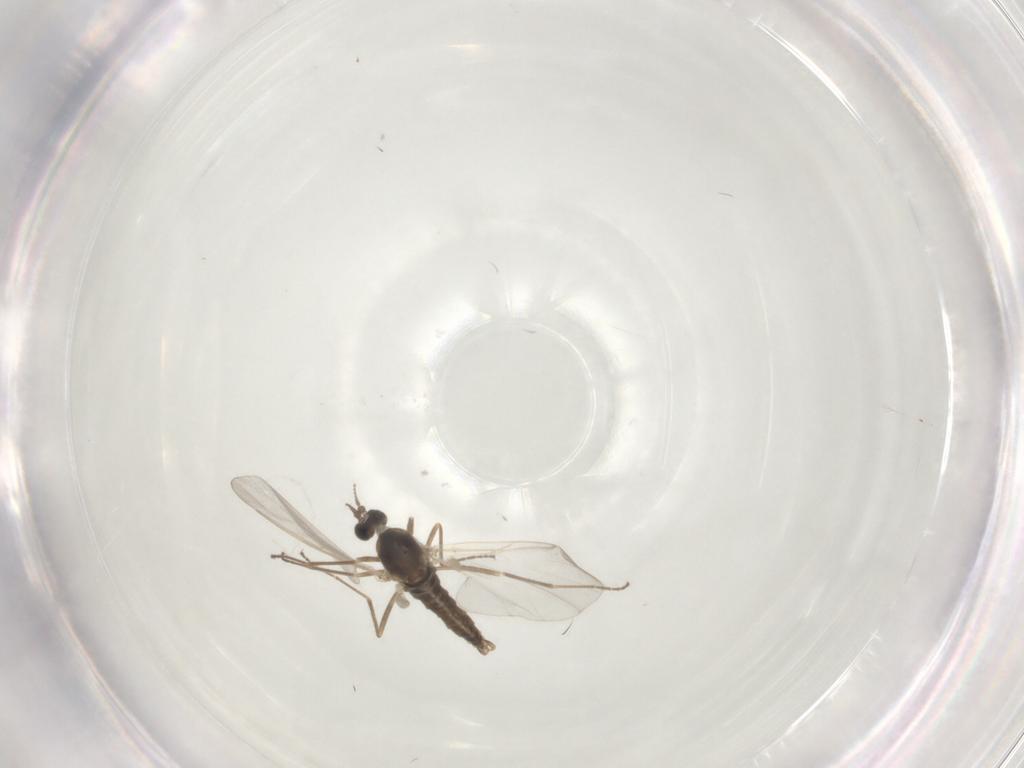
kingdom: Animalia
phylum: Arthropoda
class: Insecta
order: Diptera
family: Cecidomyiidae
